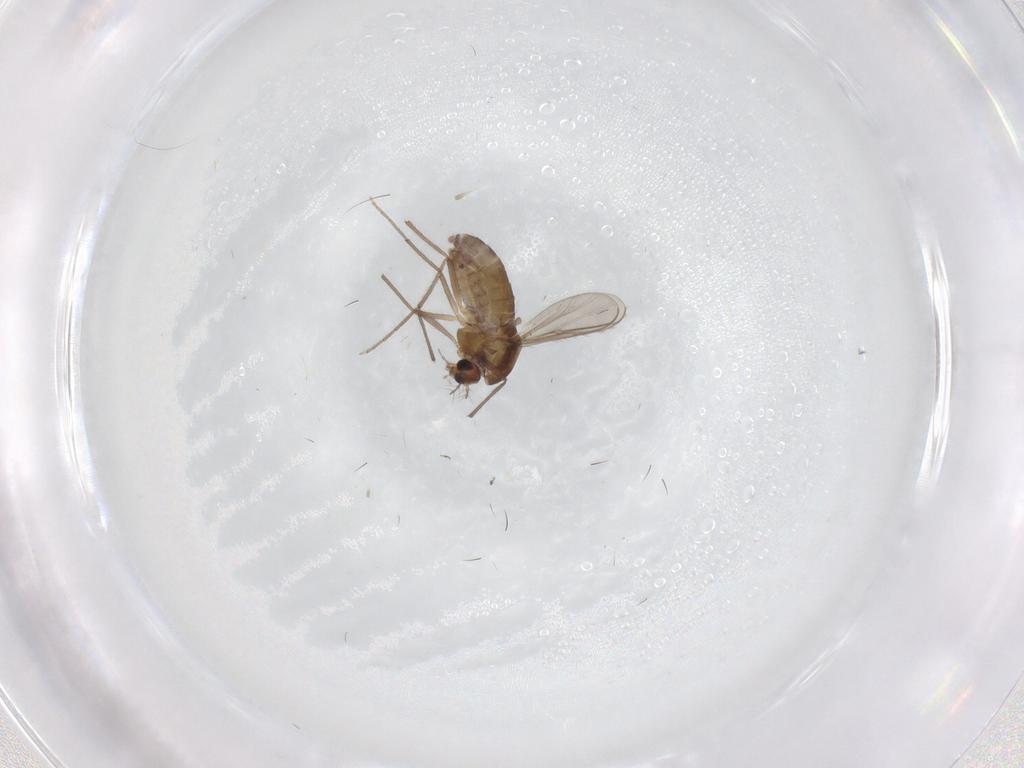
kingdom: Animalia
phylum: Arthropoda
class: Insecta
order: Diptera
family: Chironomidae
